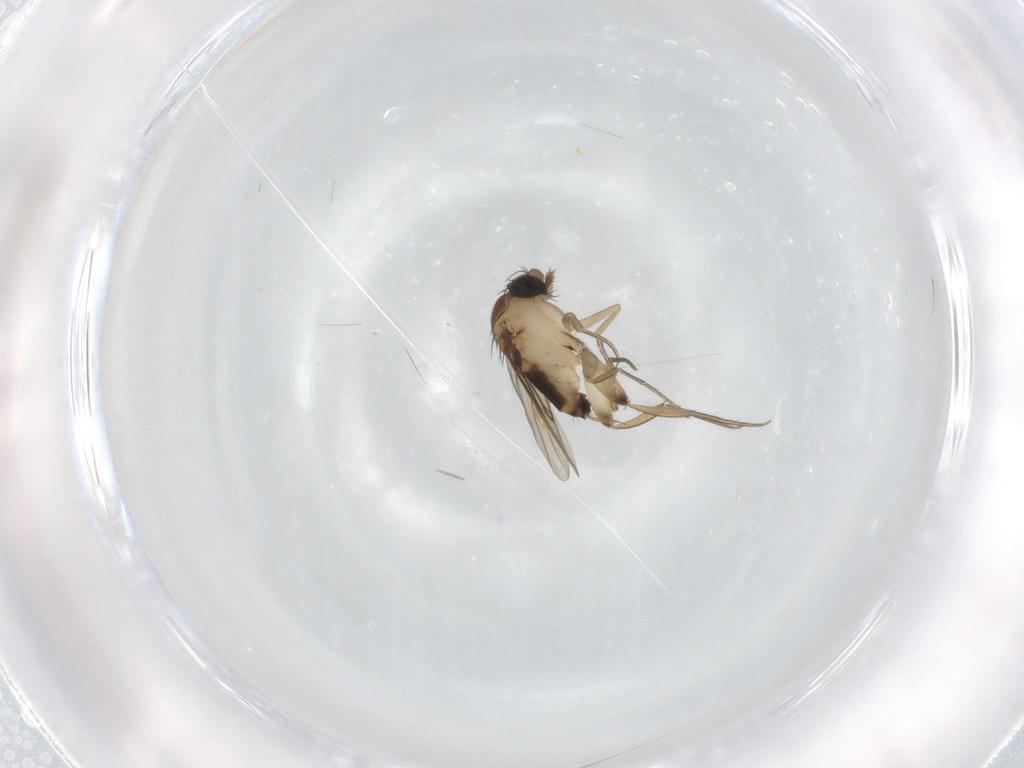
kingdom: Animalia
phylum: Arthropoda
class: Insecta
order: Diptera
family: Phoridae
